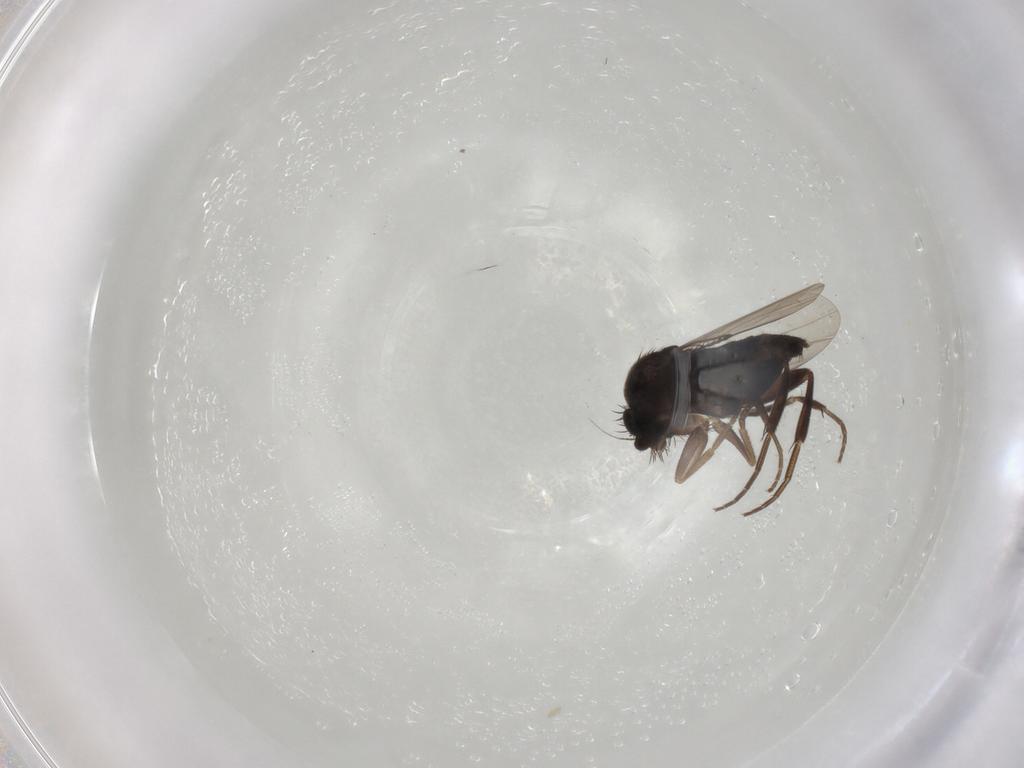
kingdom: Animalia
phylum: Arthropoda
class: Insecta
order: Diptera
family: Phoridae
